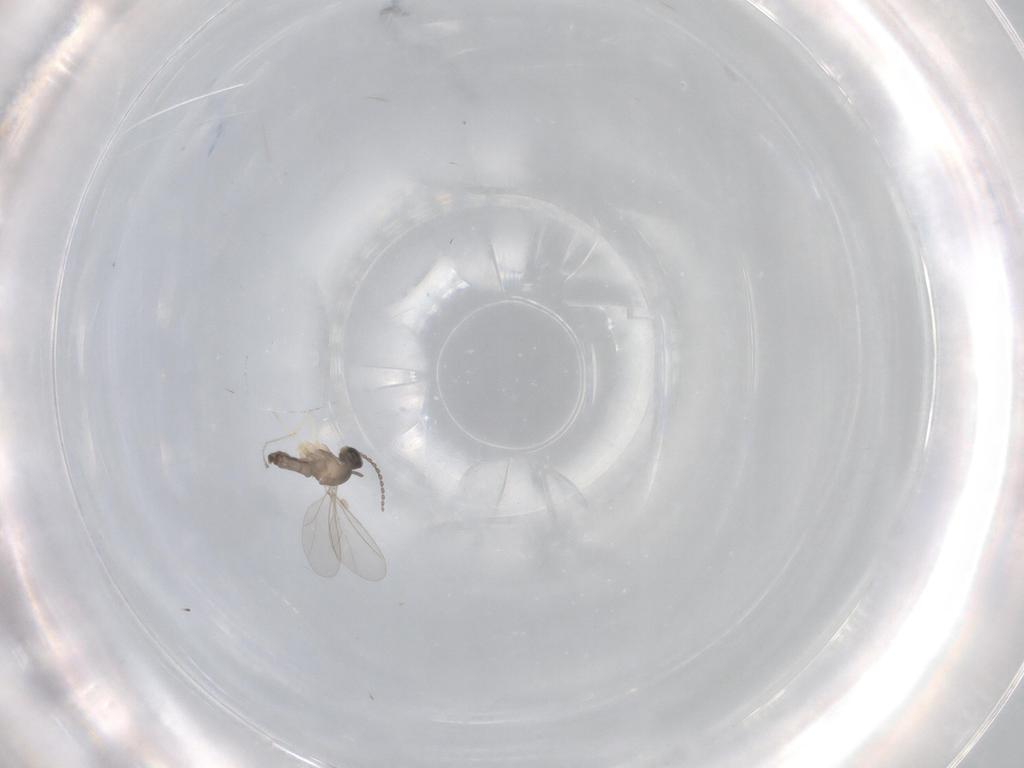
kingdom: Animalia
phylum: Arthropoda
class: Insecta
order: Diptera
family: Cecidomyiidae
